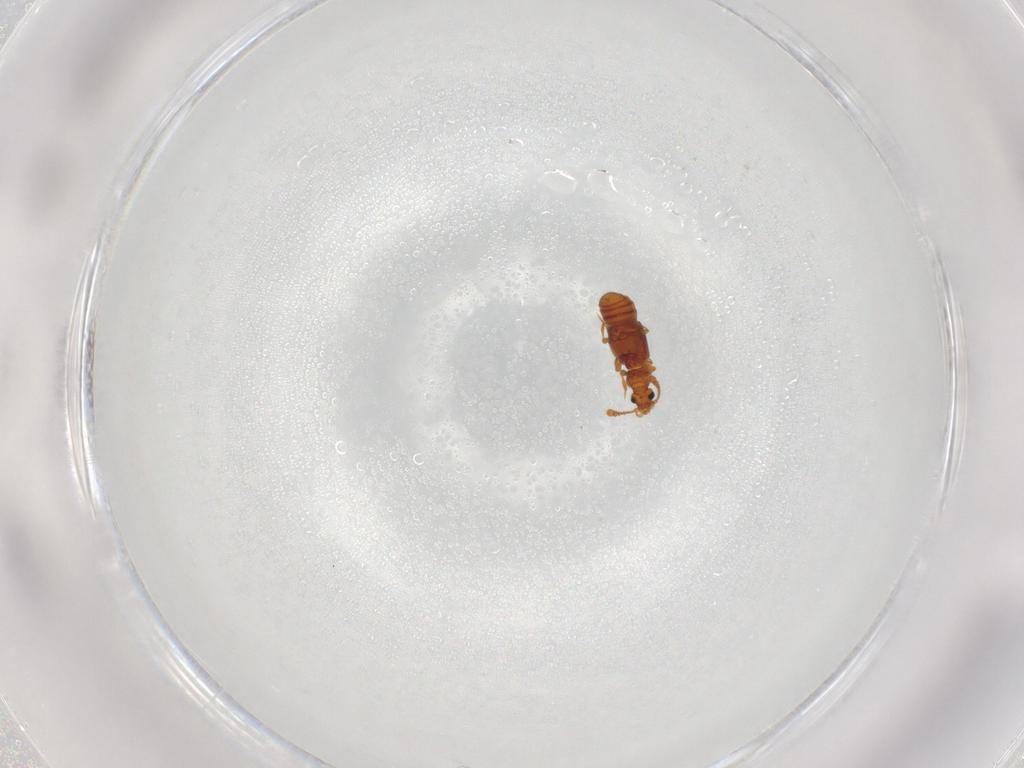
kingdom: Animalia
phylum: Arthropoda
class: Insecta
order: Coleoptera
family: Staphylinidae
